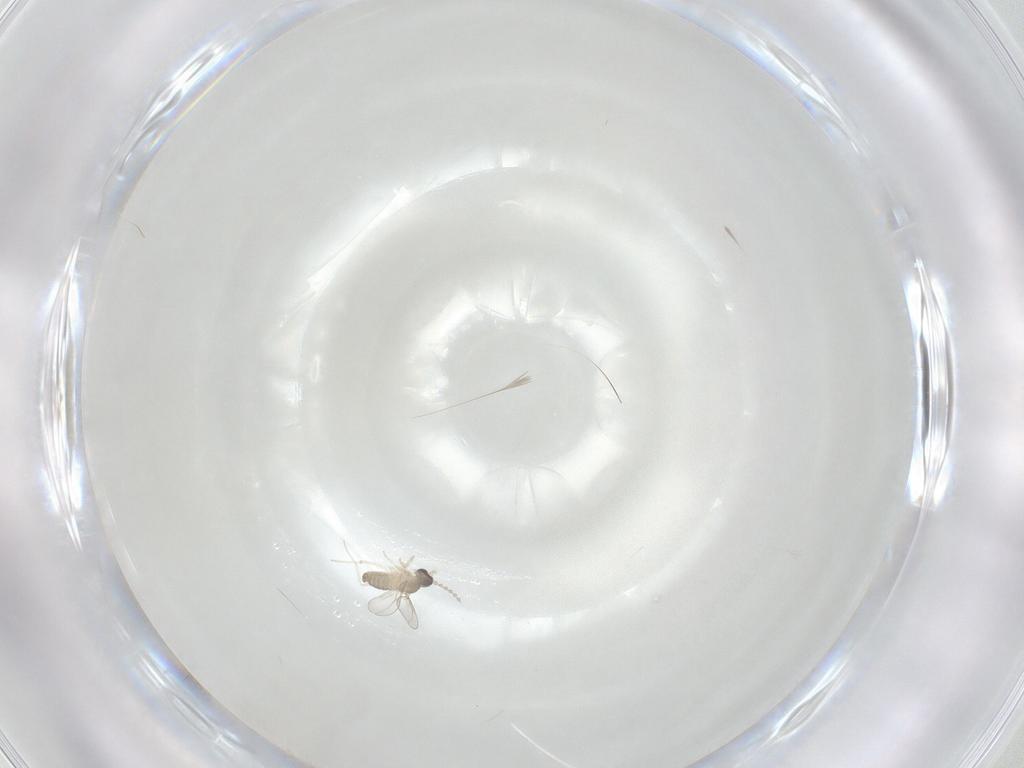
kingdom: Animalia
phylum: Arthropoda
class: Insecta
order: Diptera
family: Cecidomyiidae
